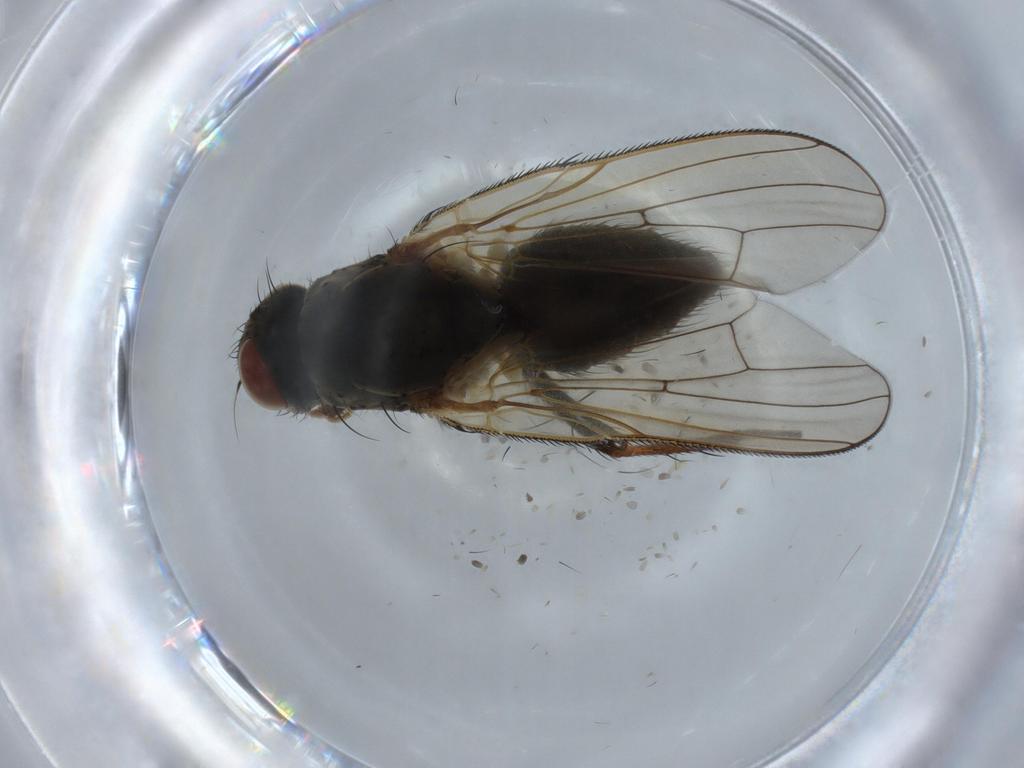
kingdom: Animalia
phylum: Arthropoda
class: Insecta
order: Diptera
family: Anthomyiidae
